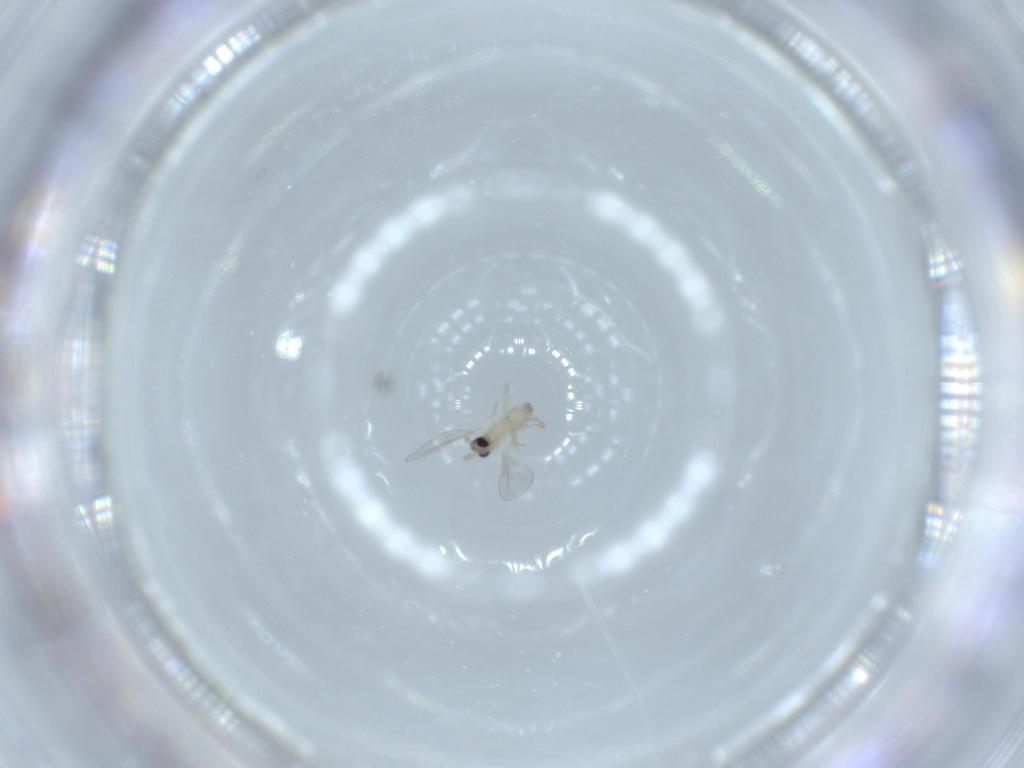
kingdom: Animalia
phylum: Arthropoda
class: Insecta
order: Diptera
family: Cecidomyiidae
